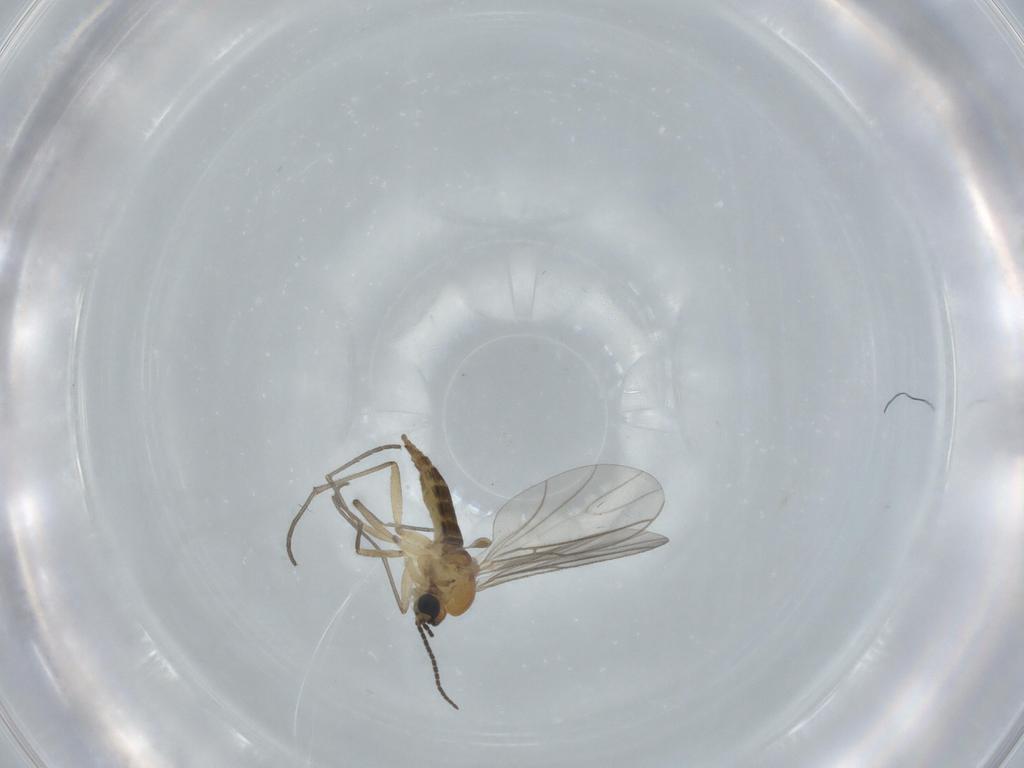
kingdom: Animalia
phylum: Arthropoda
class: Insecta
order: Diptera
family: Sciaridae
